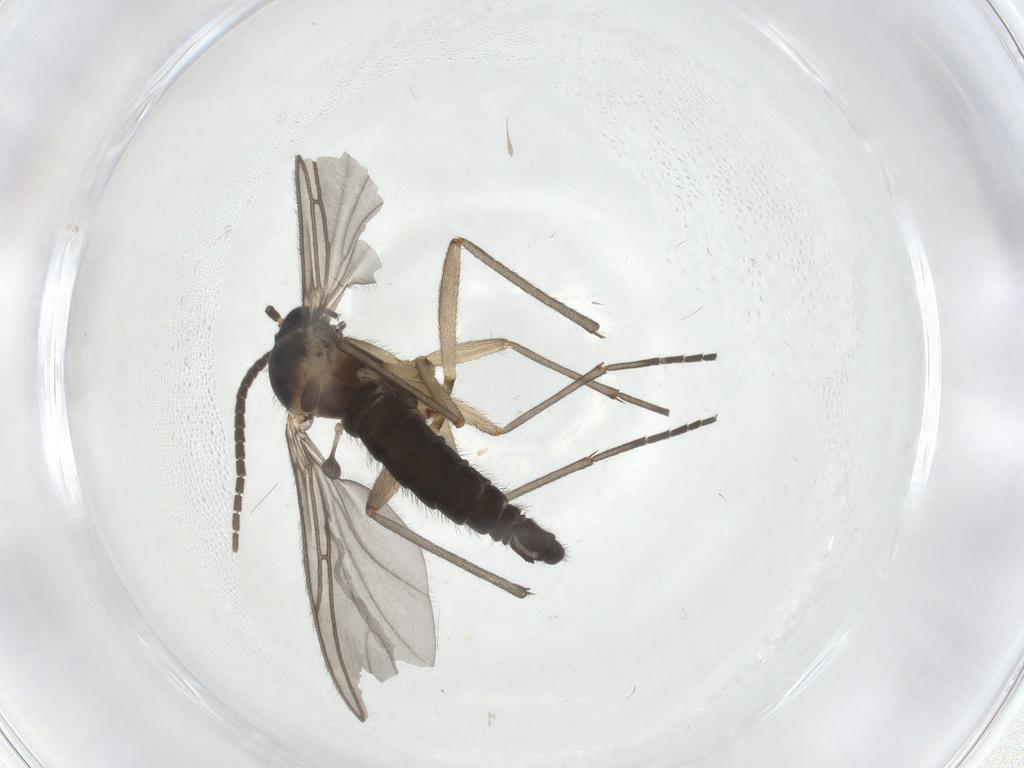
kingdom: Animalia
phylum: Arthropoda
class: Insecta
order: Diptera
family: Sciaridae
